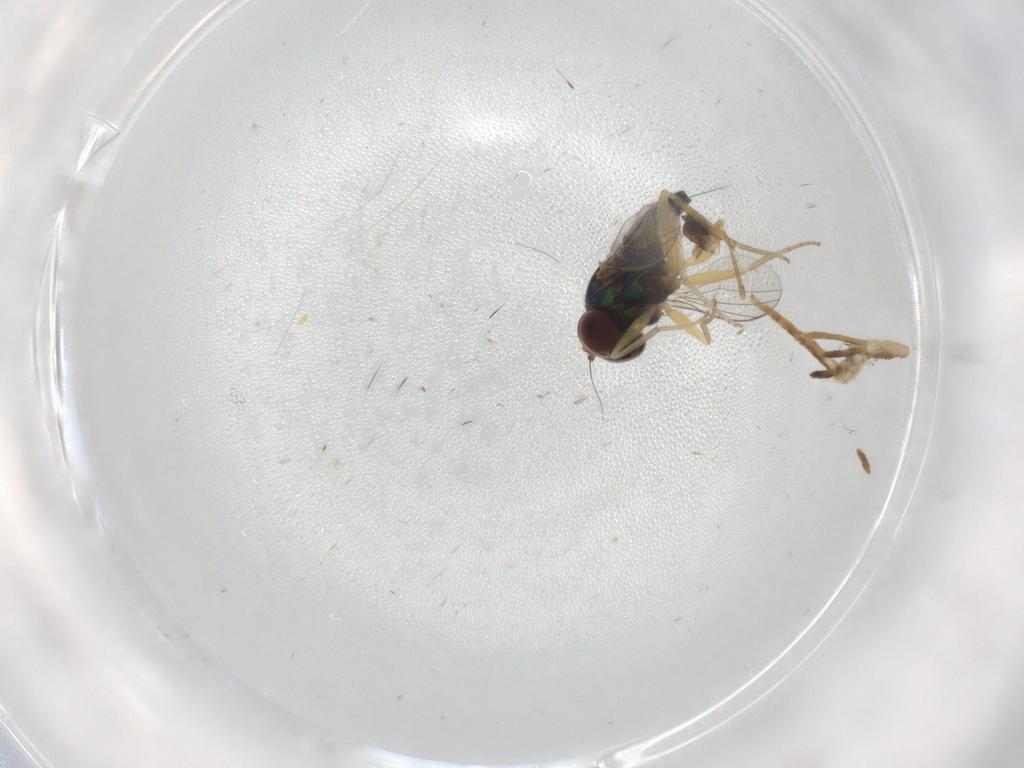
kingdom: Animalia
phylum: Arthropoda
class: Insecta
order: Diptera
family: Dolichopodidae
